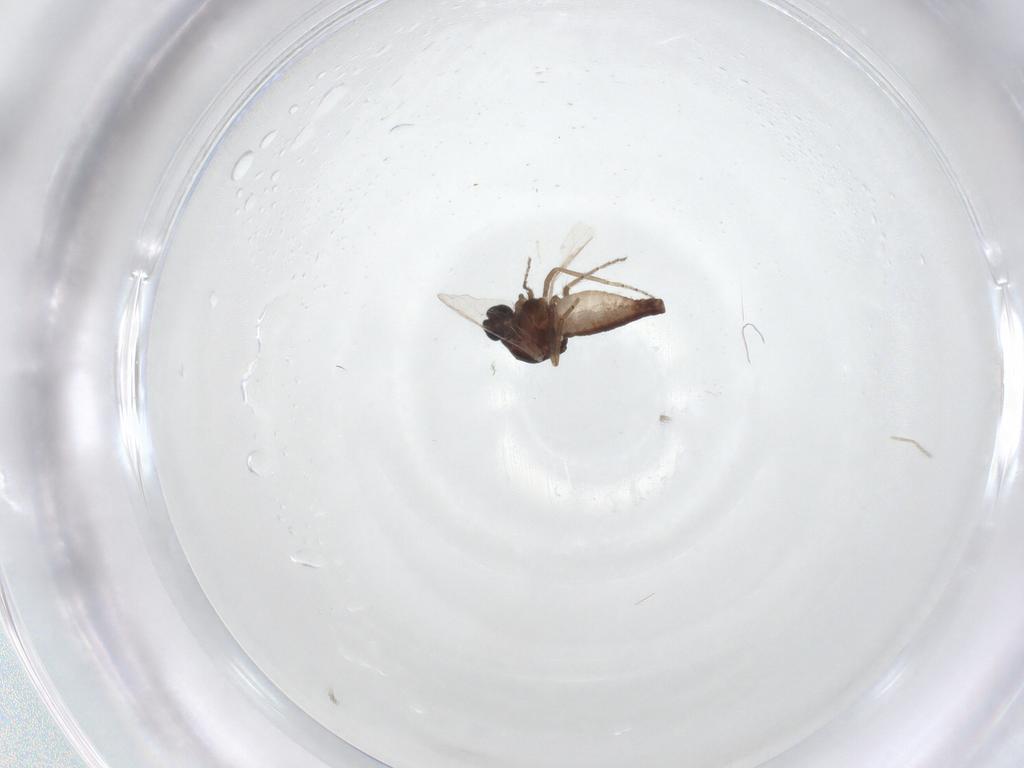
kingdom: Animalia
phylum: Arthropoda
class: Insecta
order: Diptera
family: Ceratopogonidae
